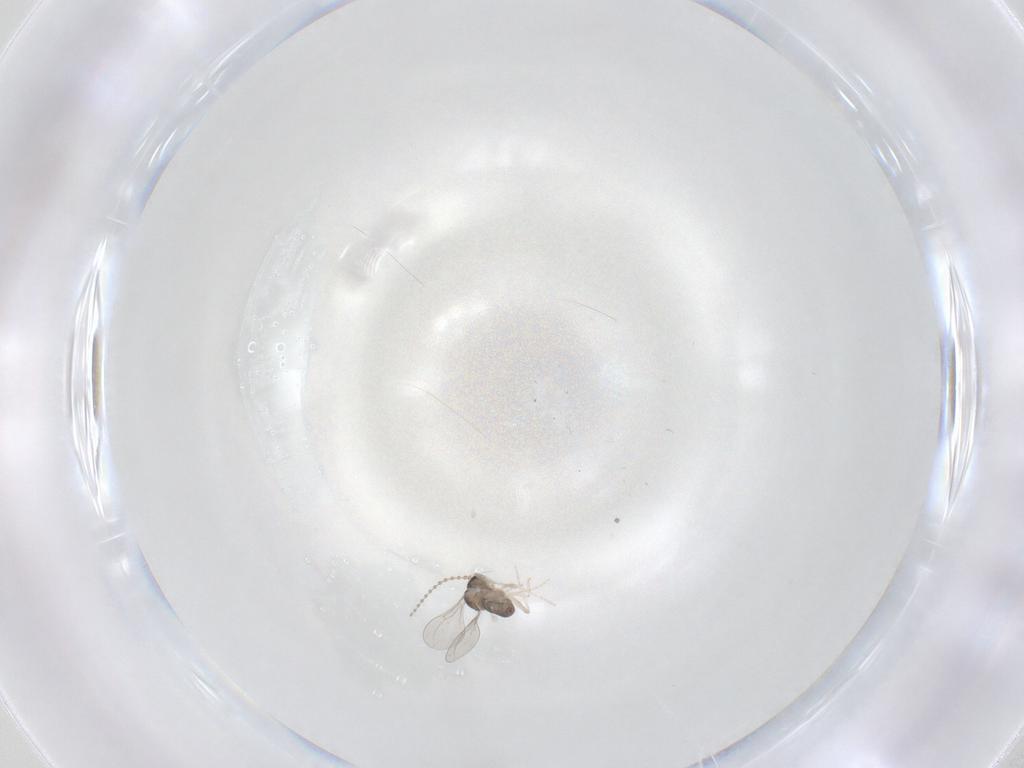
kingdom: Animalia
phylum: Arthropoda
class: Insecta
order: Diptera
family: Cecidomyiidae
